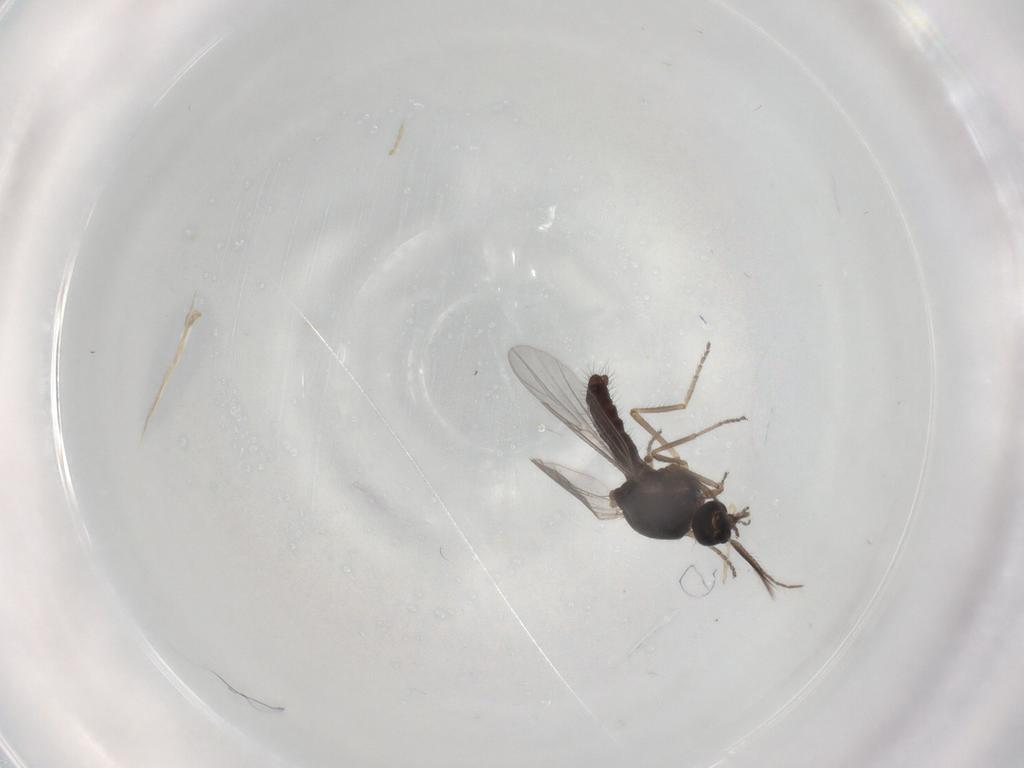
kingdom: Animalia
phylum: Arthropoda
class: Insecta
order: Diptera
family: Ceratopogonidae
